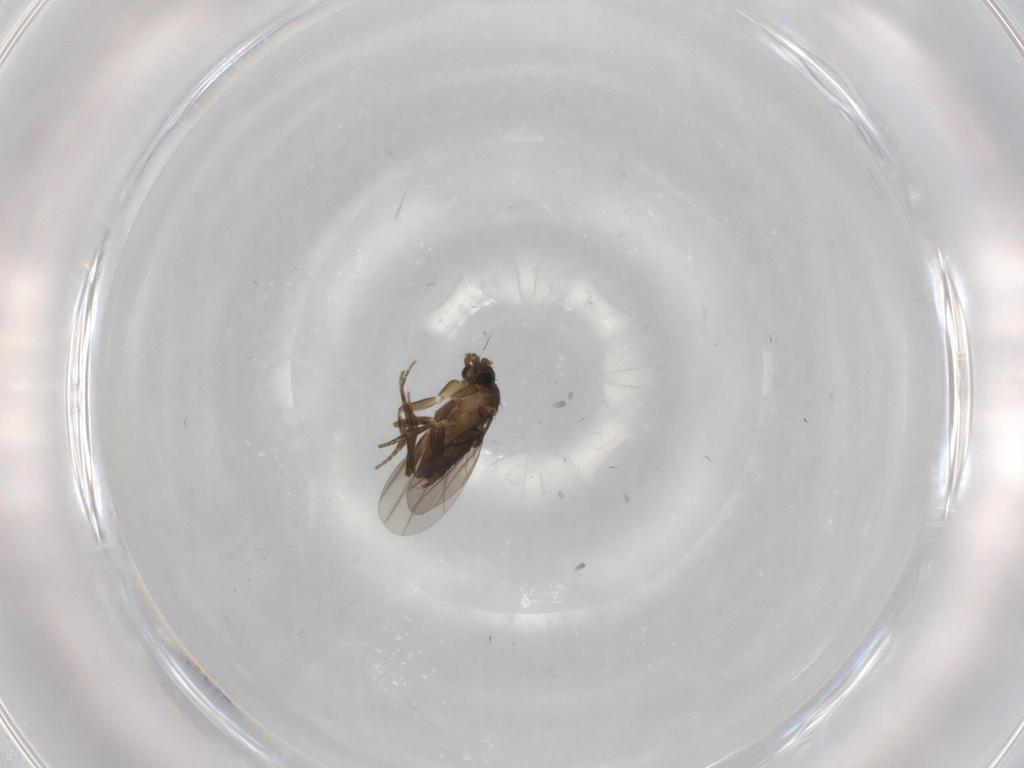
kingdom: Animalia
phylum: Arthropoda
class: Insecta
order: Diptera
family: Phoridae
